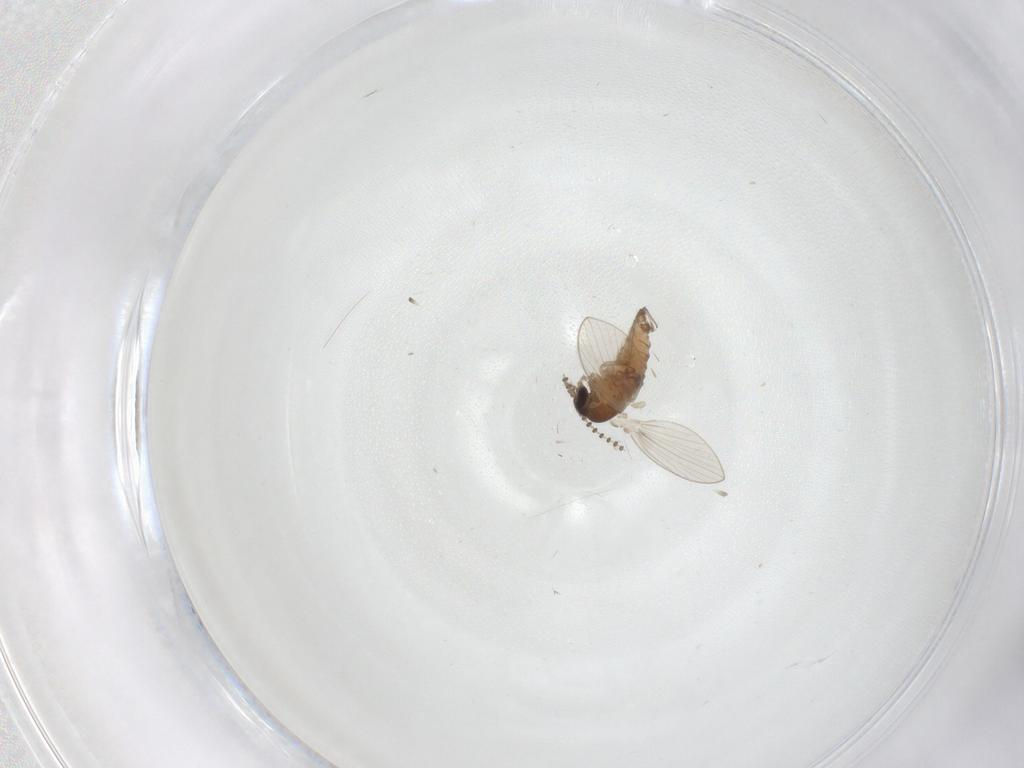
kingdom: Animalia
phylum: Arthropoda
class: Insecta
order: Diptera
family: Psychodidae
